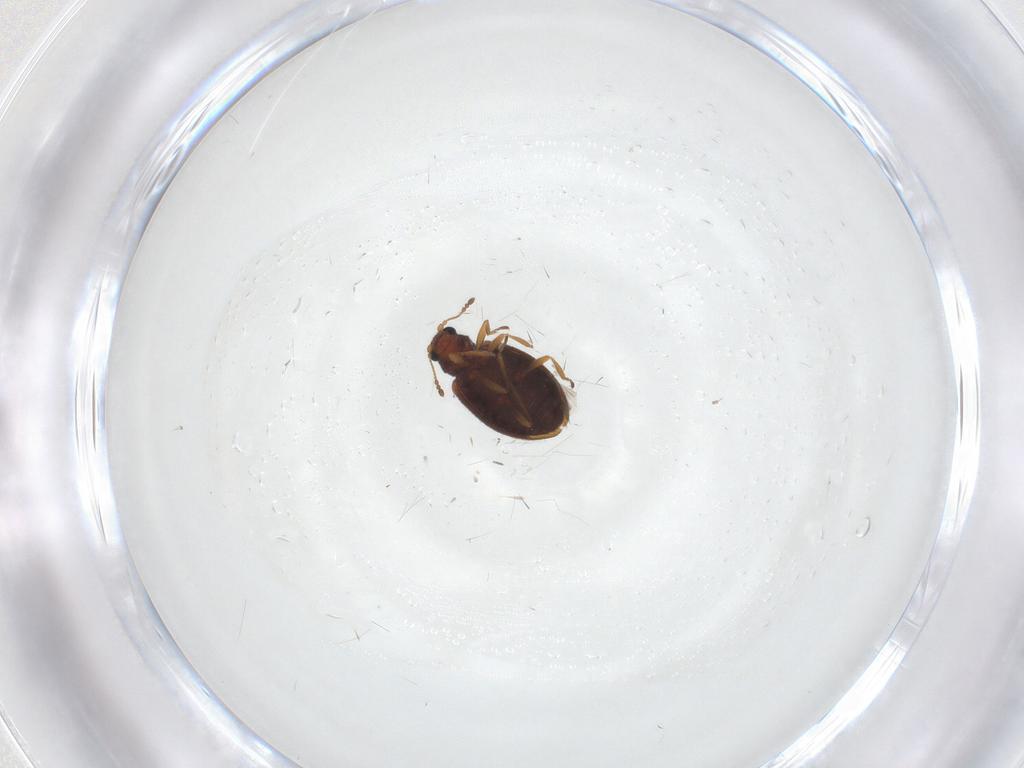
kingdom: Animalia
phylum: Arthropoda
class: Insecta
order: Coleoptera
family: Latridiidae
